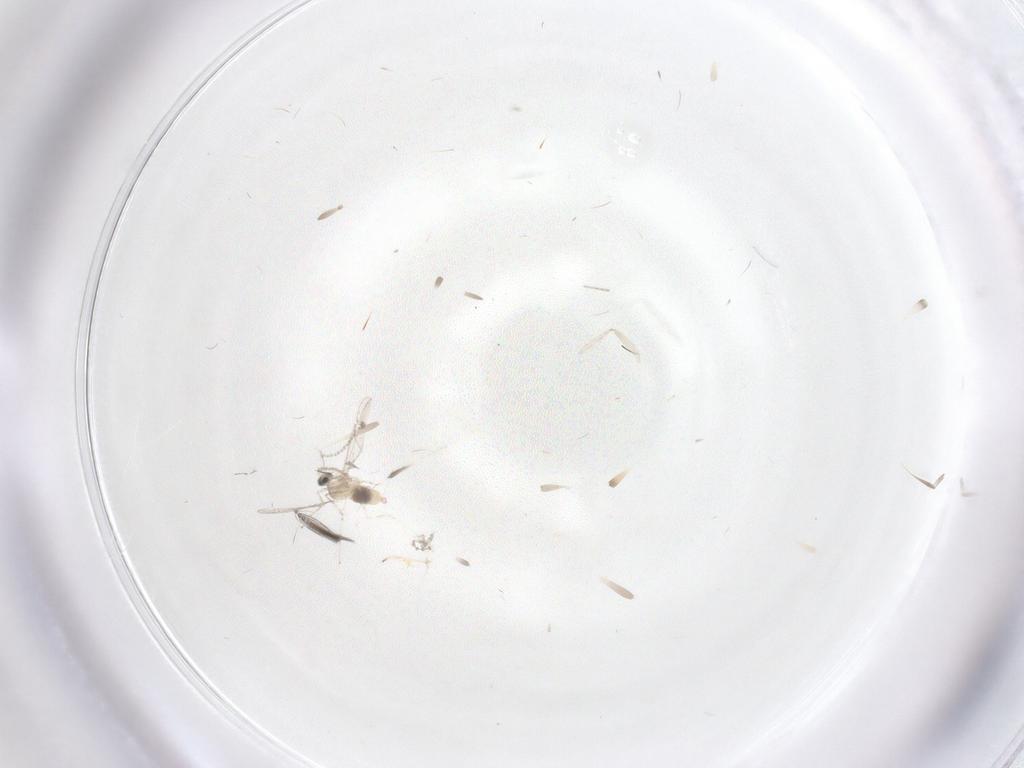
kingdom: Animalia
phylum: Arthropoda
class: Insecta
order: Diptera
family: Cecidomyiidae
